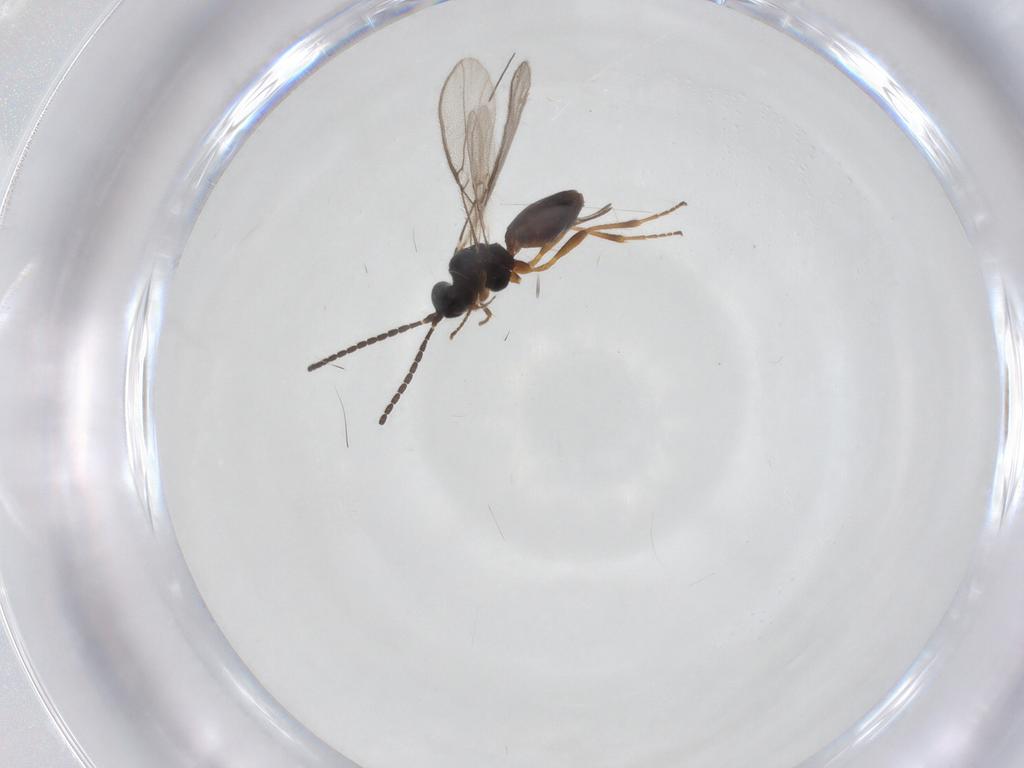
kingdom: Animalia
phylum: Arthropoda
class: Insecta
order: Hymenoptera
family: Braconidae
